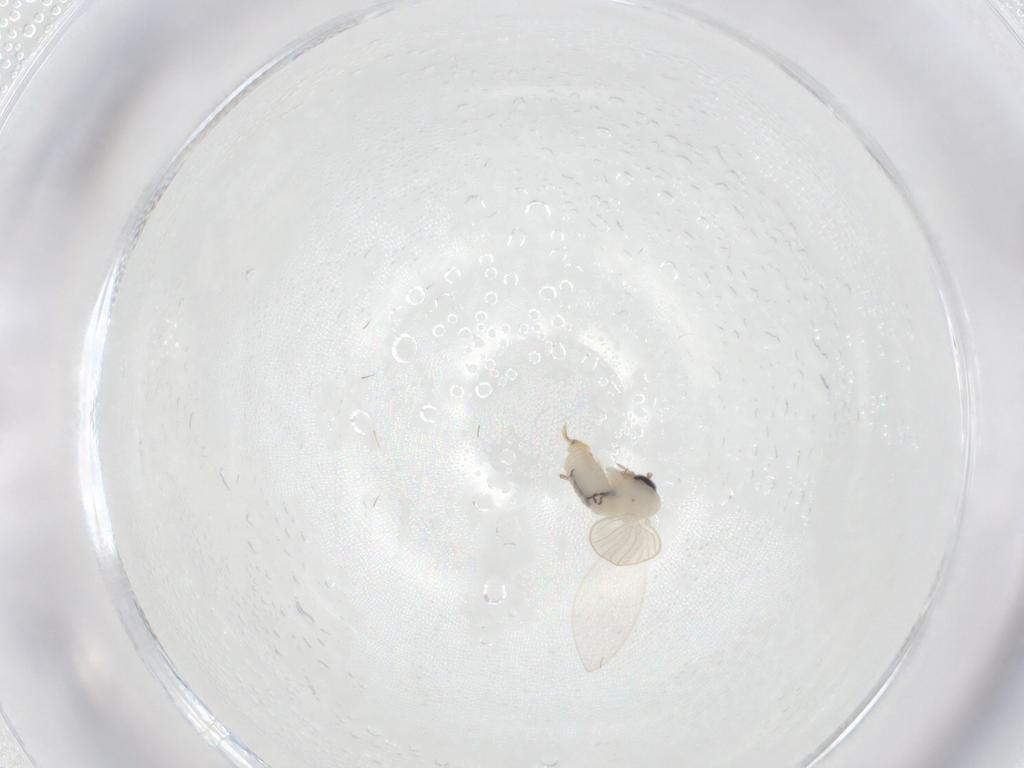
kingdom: Animalia
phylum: Arthropoda
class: Insecta
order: Diptera
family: Psychodidae
